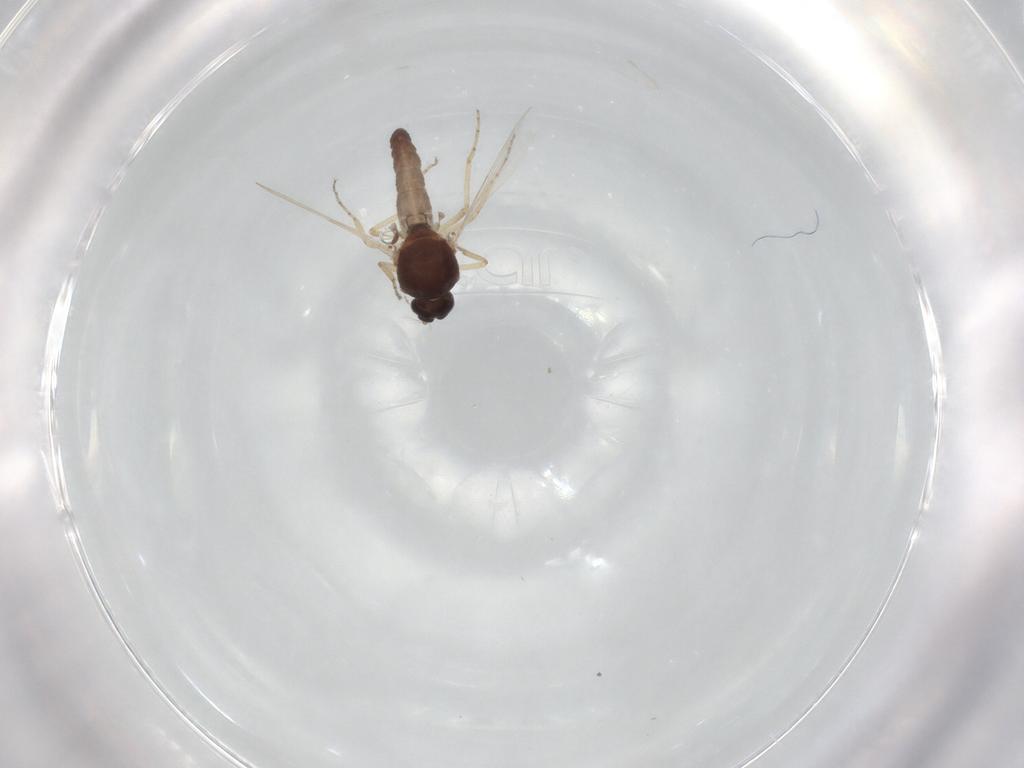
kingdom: Animalia
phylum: Arthropoda
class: Insecta
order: Diptera
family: Ceratopogonidae
